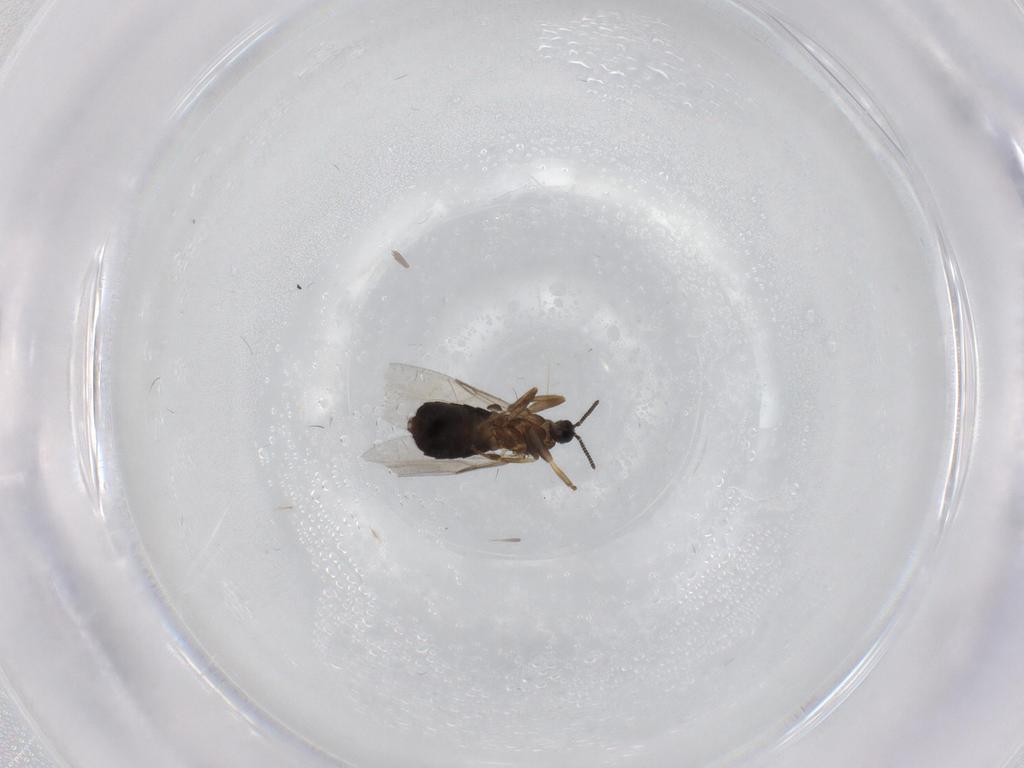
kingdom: Animalia
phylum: Arthropoda
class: Insecta
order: Diptera
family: Scatopsidae
